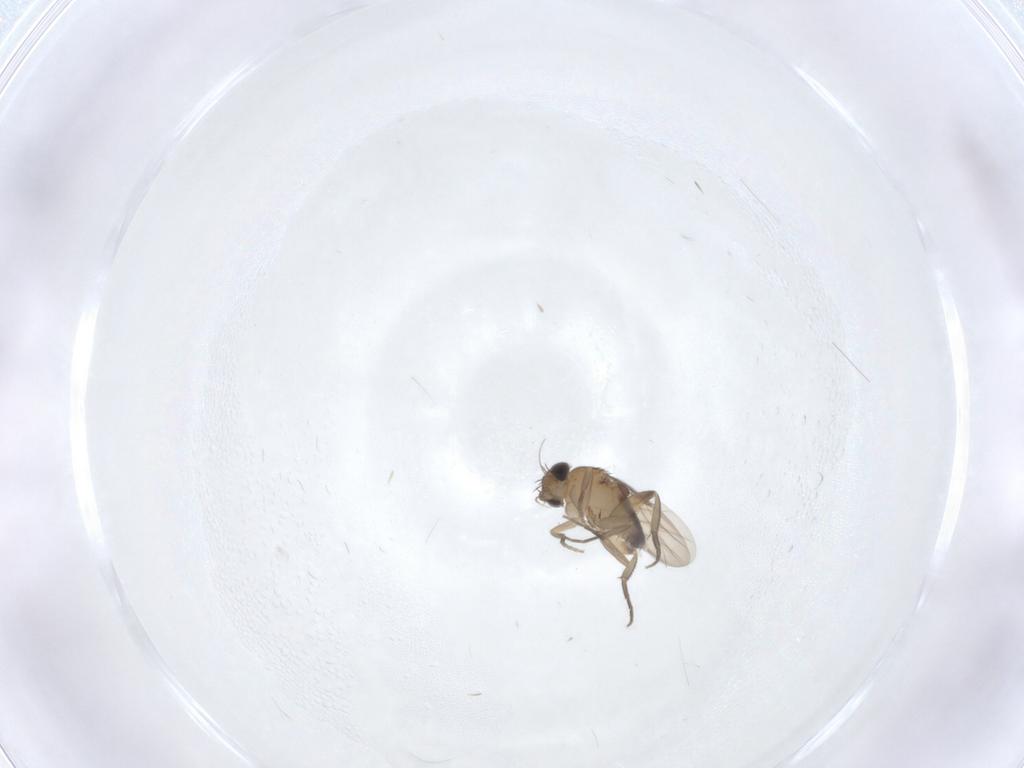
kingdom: Animalia
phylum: Arthropoda
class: Insecta
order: Diptera
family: Phoridae
